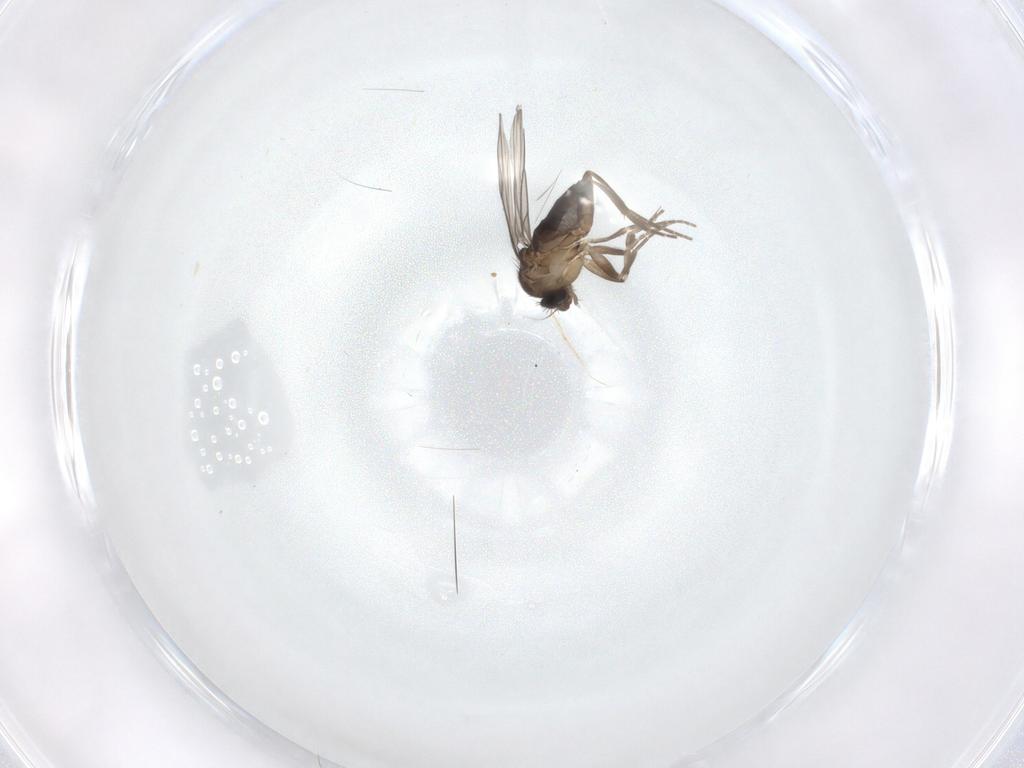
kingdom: Animalia
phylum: Arthropoda
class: Insecta
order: Diptera
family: Phoridae
